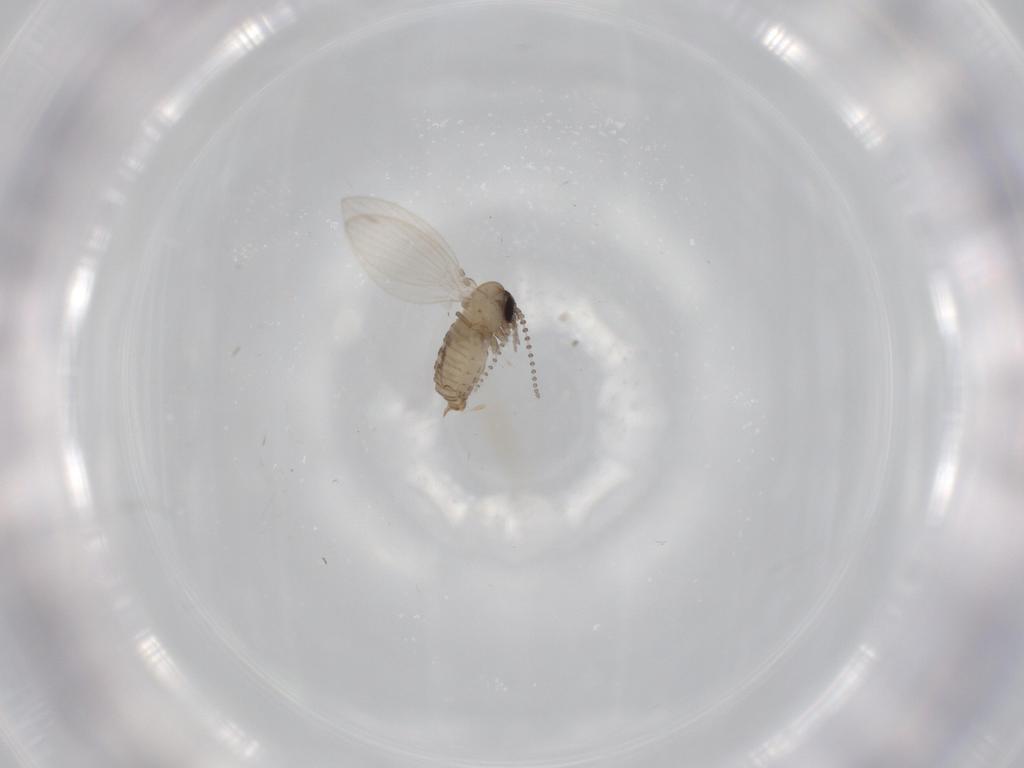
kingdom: Animalia
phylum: Arthropoda
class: Insecta
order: Diptera
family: Psychodidae
